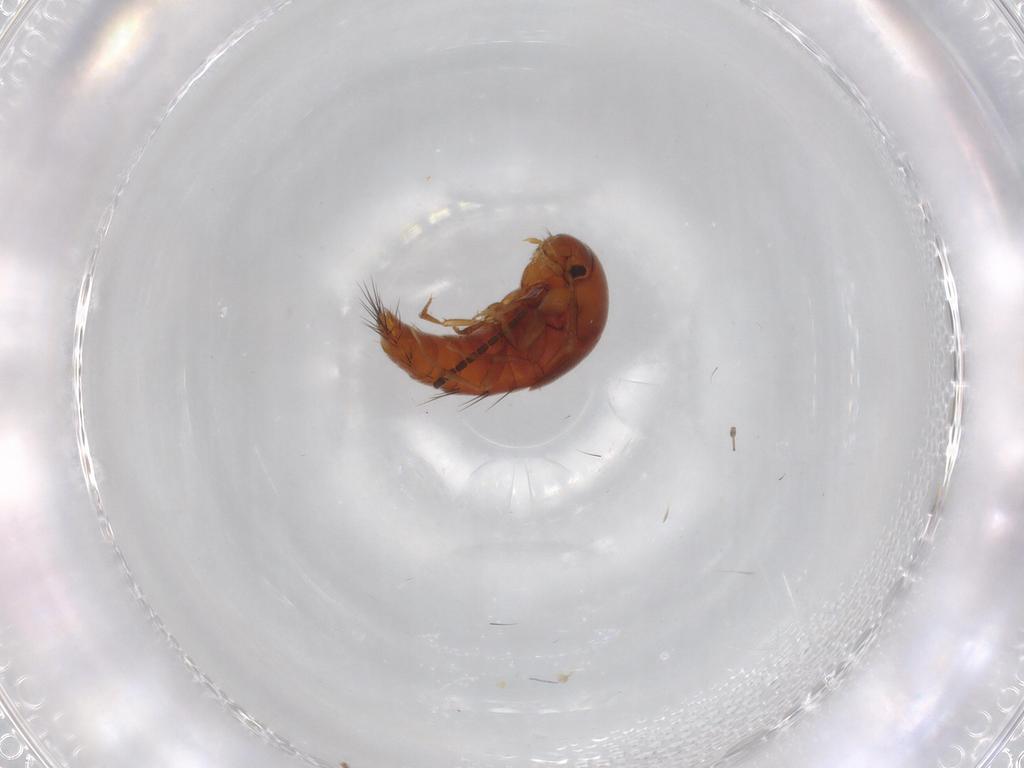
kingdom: Animalia
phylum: Arthropoda
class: Insecta
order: Coleoptera
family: Staphylinidae
